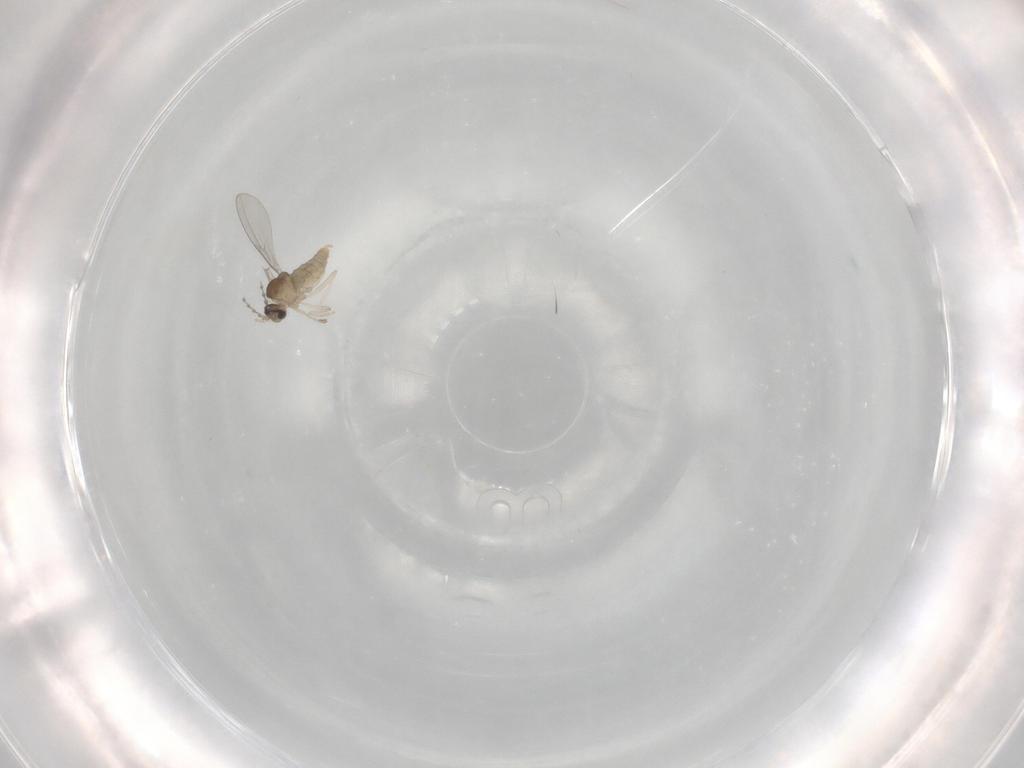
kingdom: Animalia
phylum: Arthropoda
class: Insecta
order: Diptera
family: Cecidomyiidae
